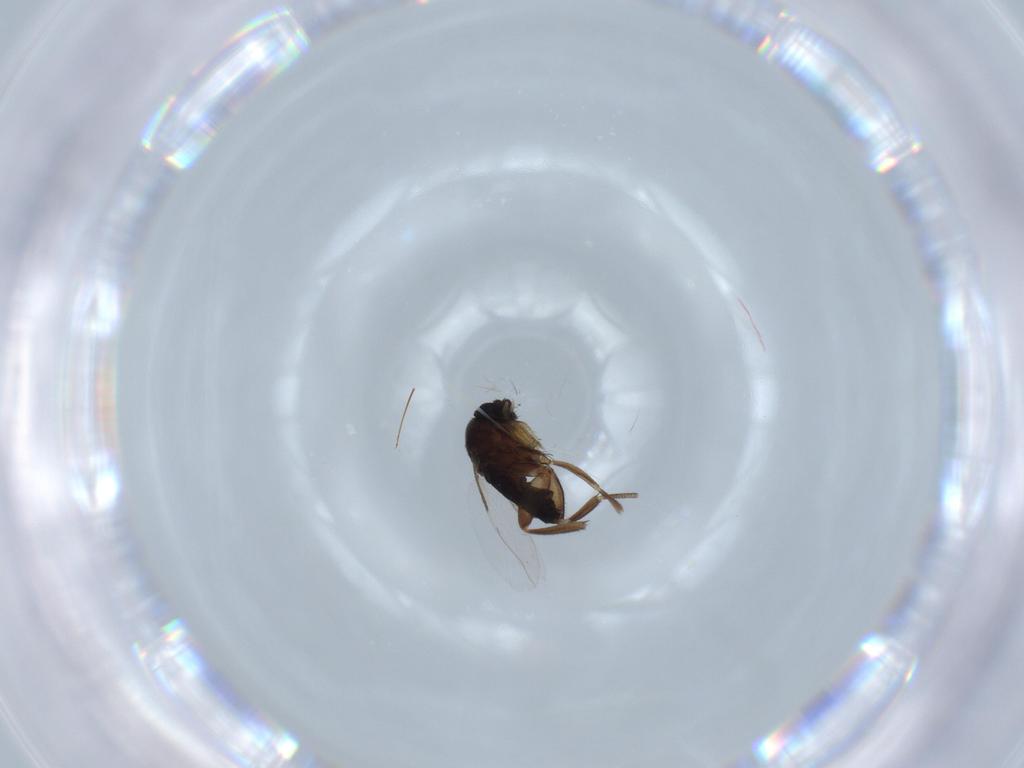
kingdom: Animalia
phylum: Arthropoda
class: Insecta
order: Diptera
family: Phoridae
